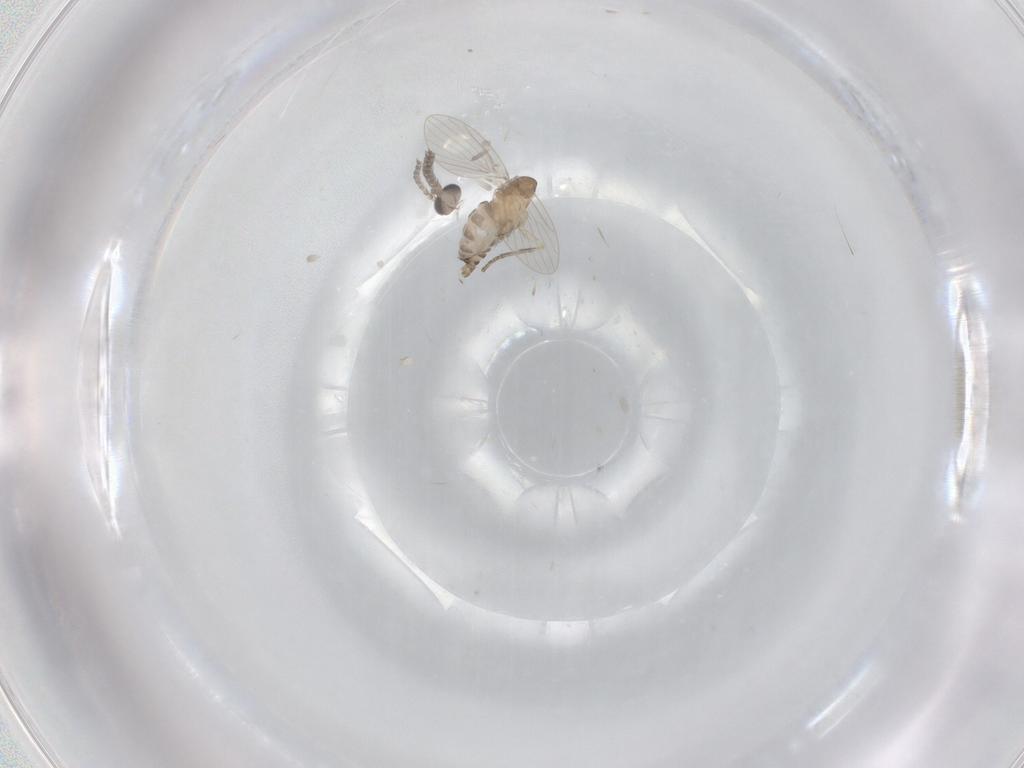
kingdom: Animalia
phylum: Arthropoda
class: Insecta
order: Diptera
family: Psychodidae
